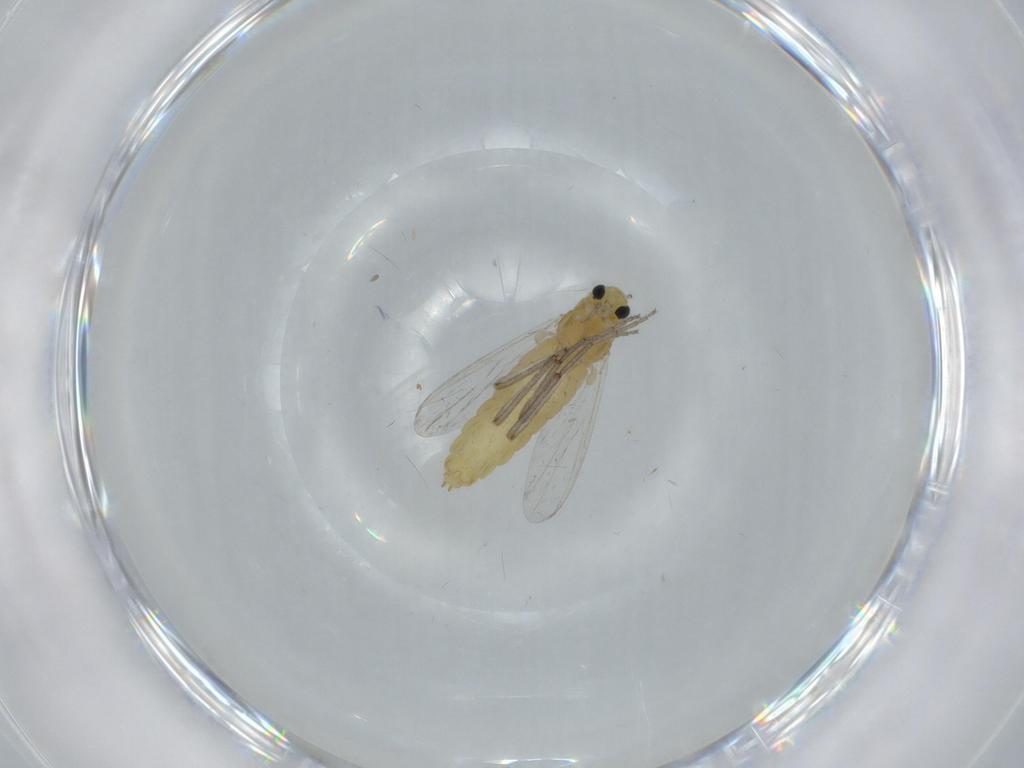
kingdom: Animalia
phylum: Arthropoda
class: Insecta
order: Diptera
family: Chironomidae
